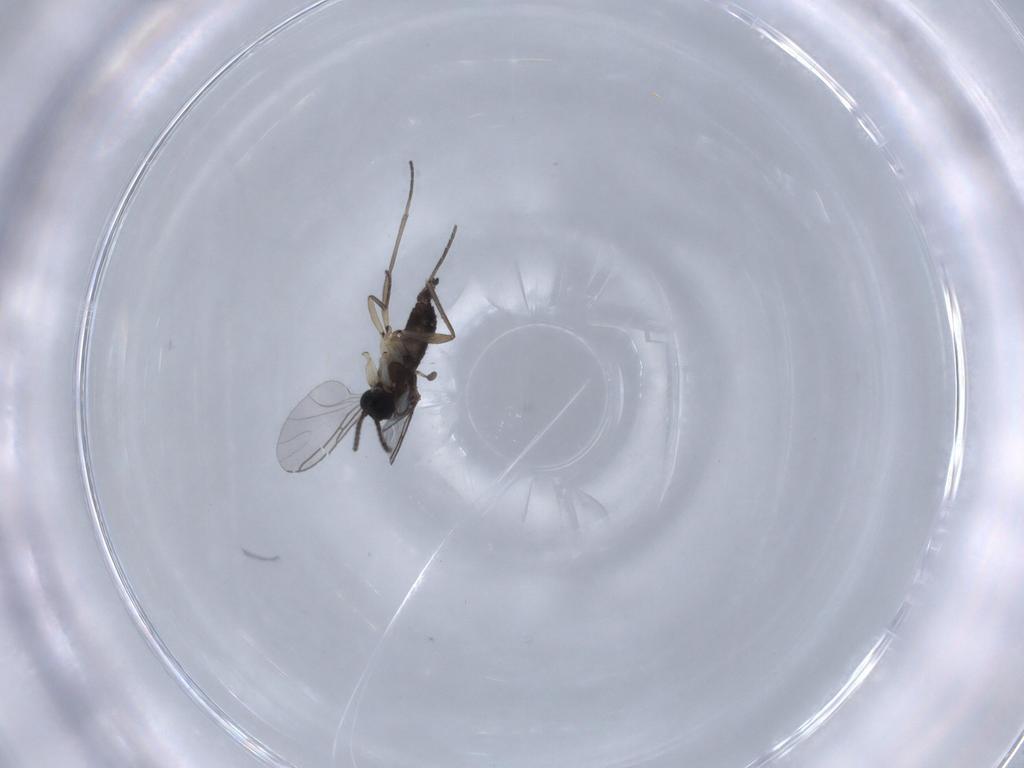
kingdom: Animalia
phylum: Arthropoda
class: Insecta
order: Diptera
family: Sciaridae
